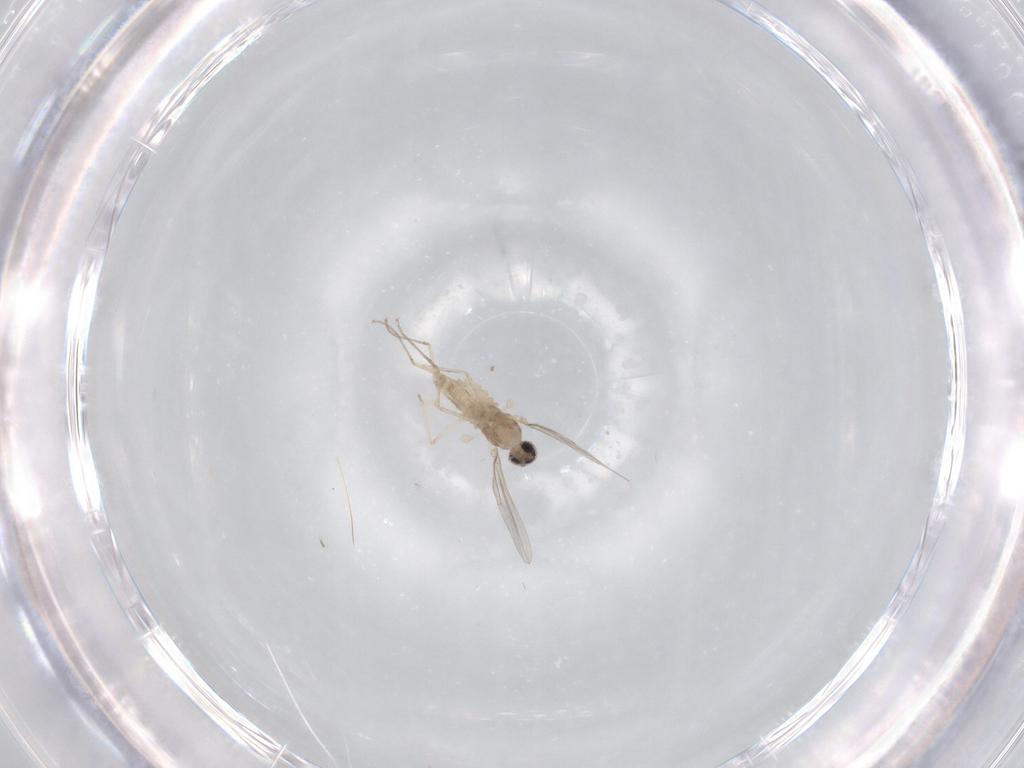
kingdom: Animalia
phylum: Arthropoda
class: Insecta
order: Diptera
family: Cecidomyiidae
